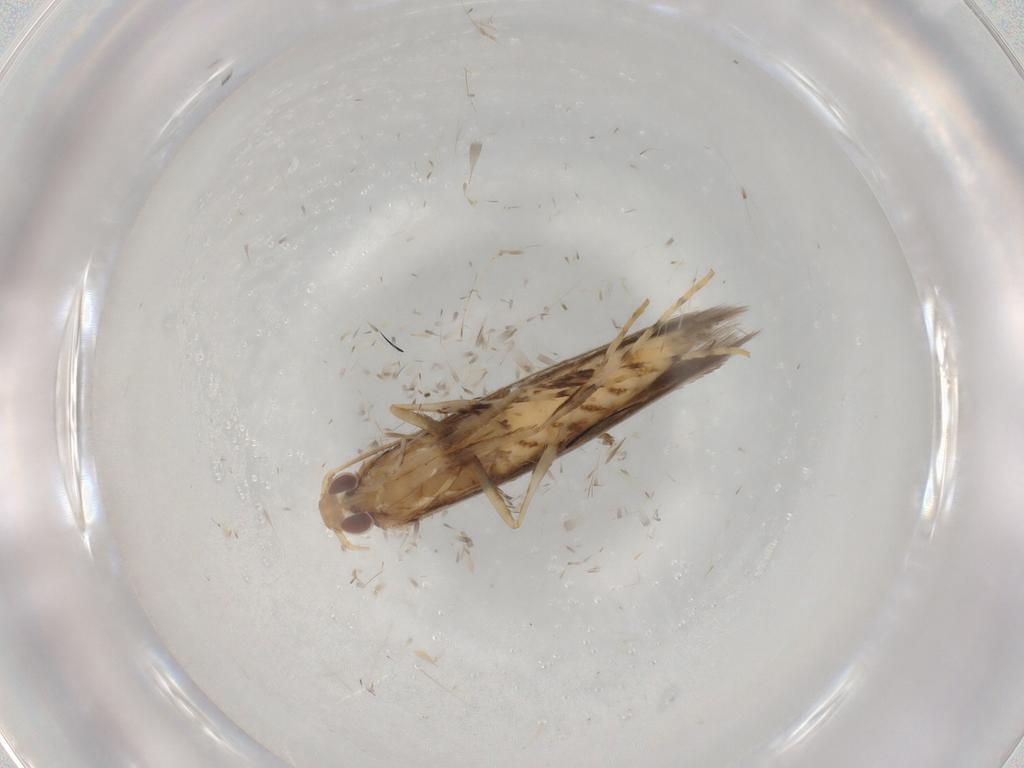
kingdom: Animalia
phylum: Arthropoda
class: Insecta
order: Lepidoptera
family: Gracillariidae
